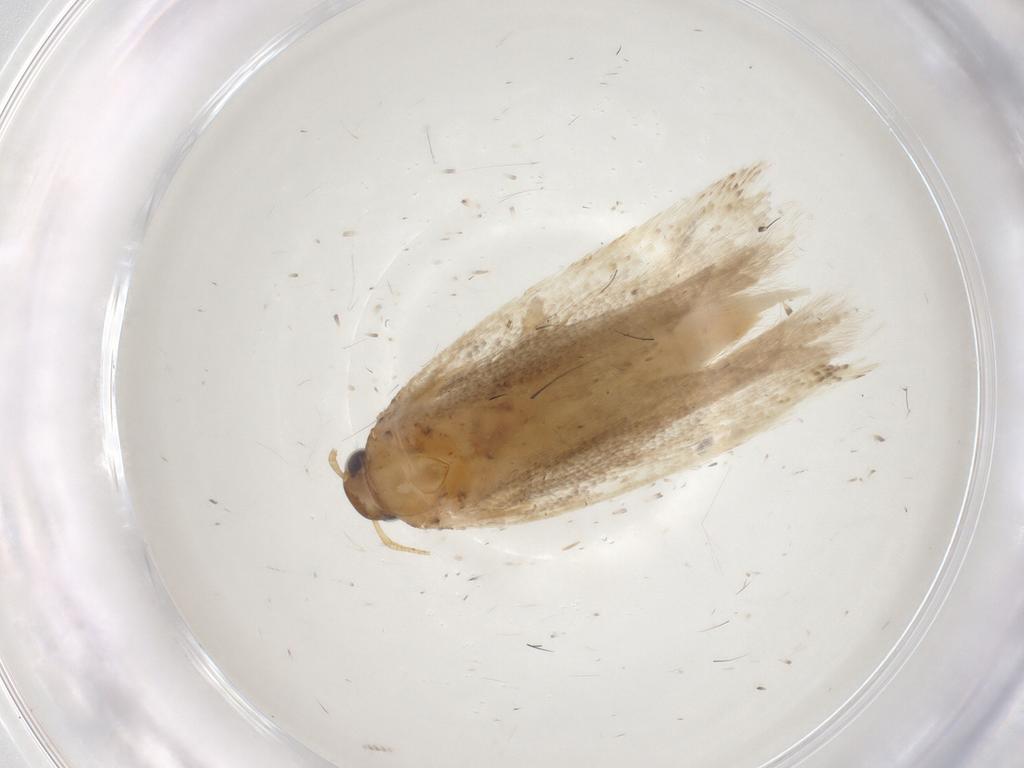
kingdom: Animalia
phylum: Arthropoda
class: Insecta
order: Lepidoptera
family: Gelechiidae
